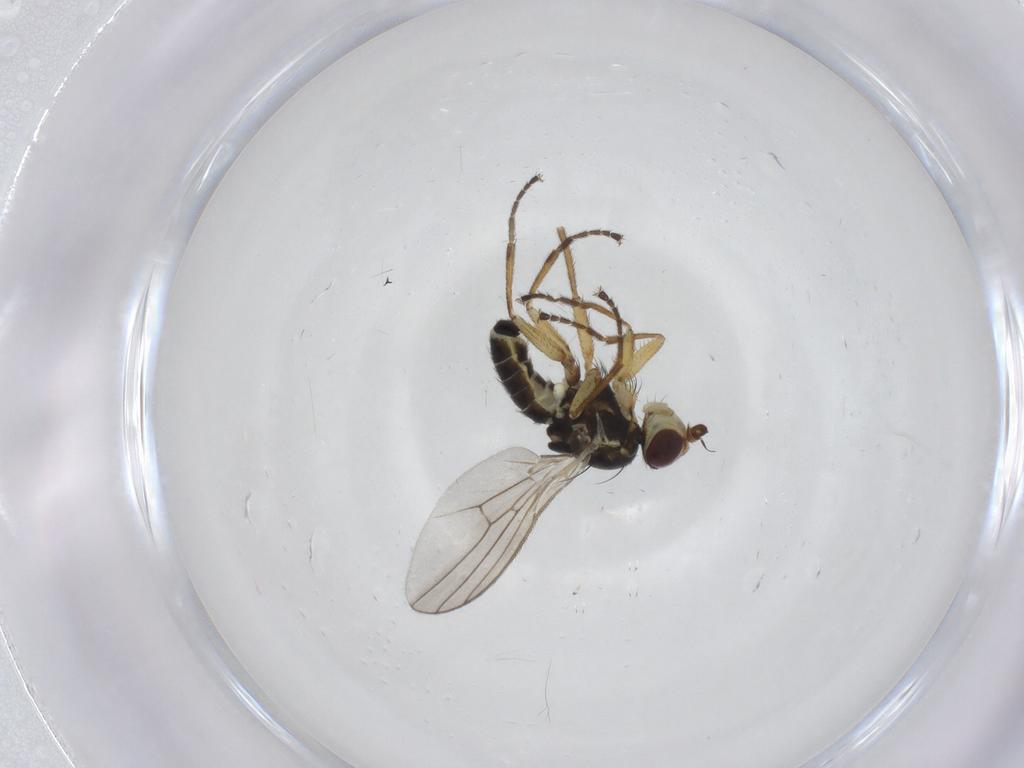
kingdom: Animalia
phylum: Arthropoda
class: Insecta
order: Diptera
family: Agromyzidae
